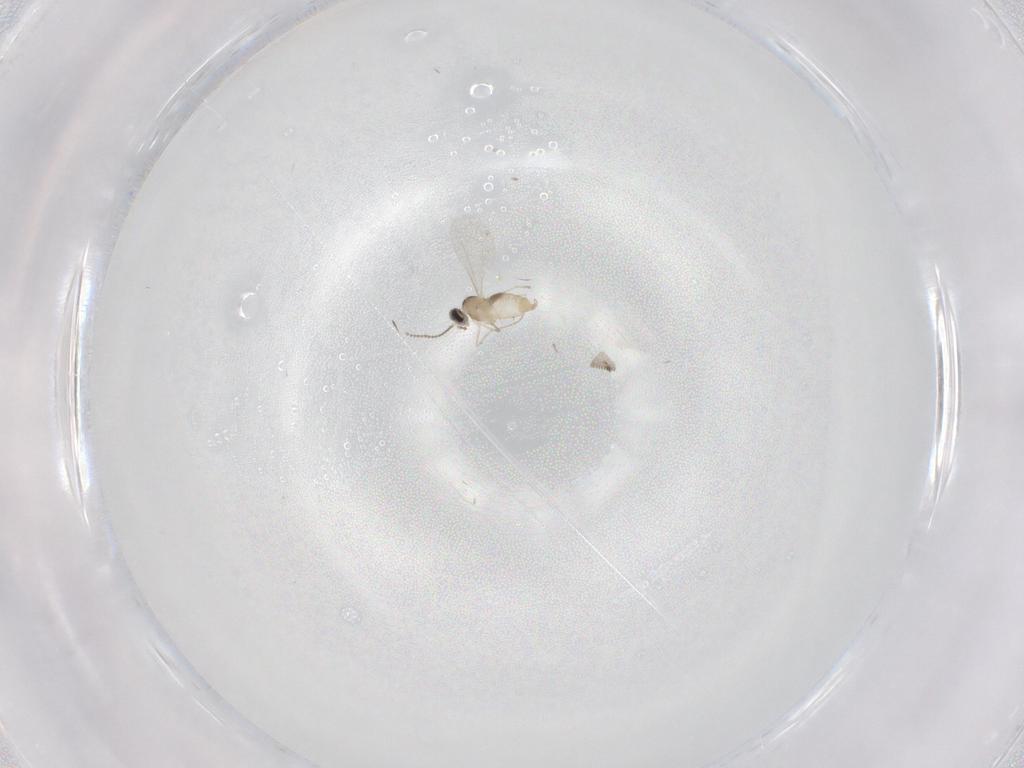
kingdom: Animalia
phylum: Arthropoda
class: Insecta
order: Diptera
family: Cecidomyiidae
